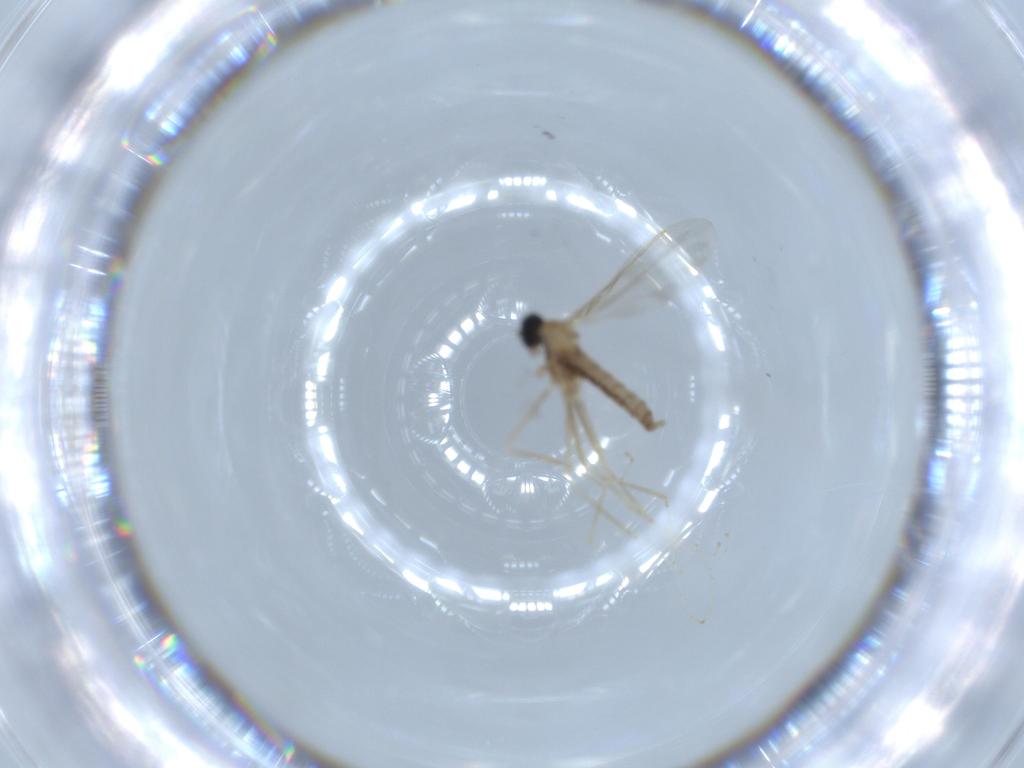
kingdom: Animalia
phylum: Arthropoda
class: Insecta
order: Diptera
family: Cecidomyiidae
